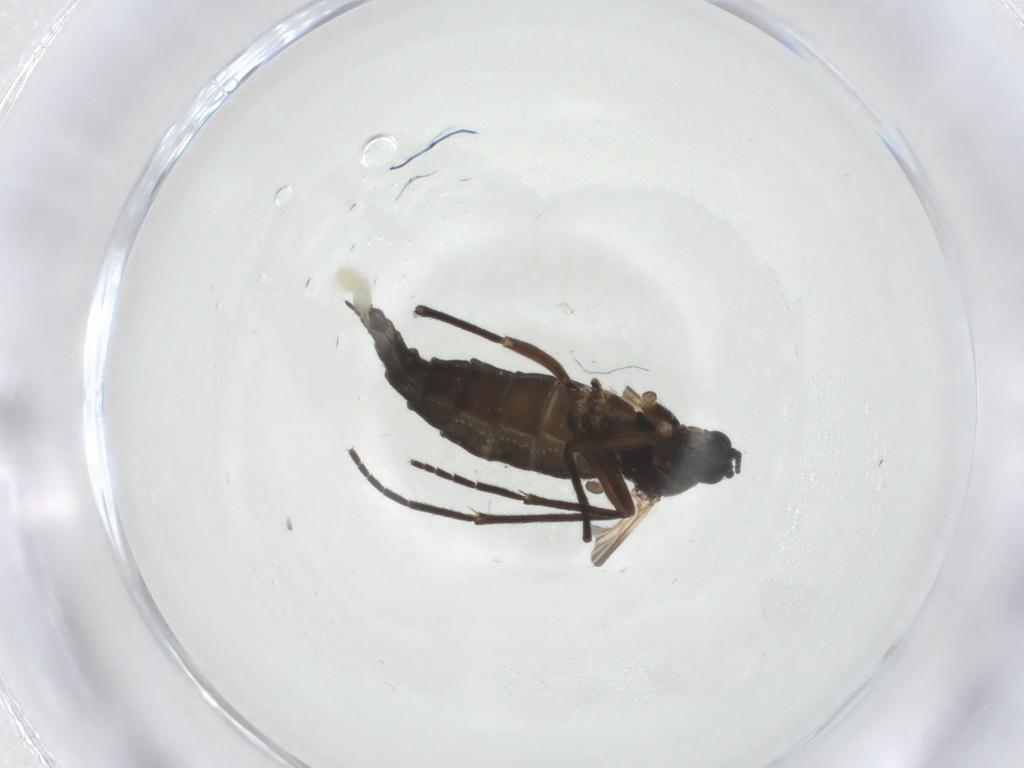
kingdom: Animalia
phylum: Arthropoda
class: Insecta
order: Diptera
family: Sciaridae
